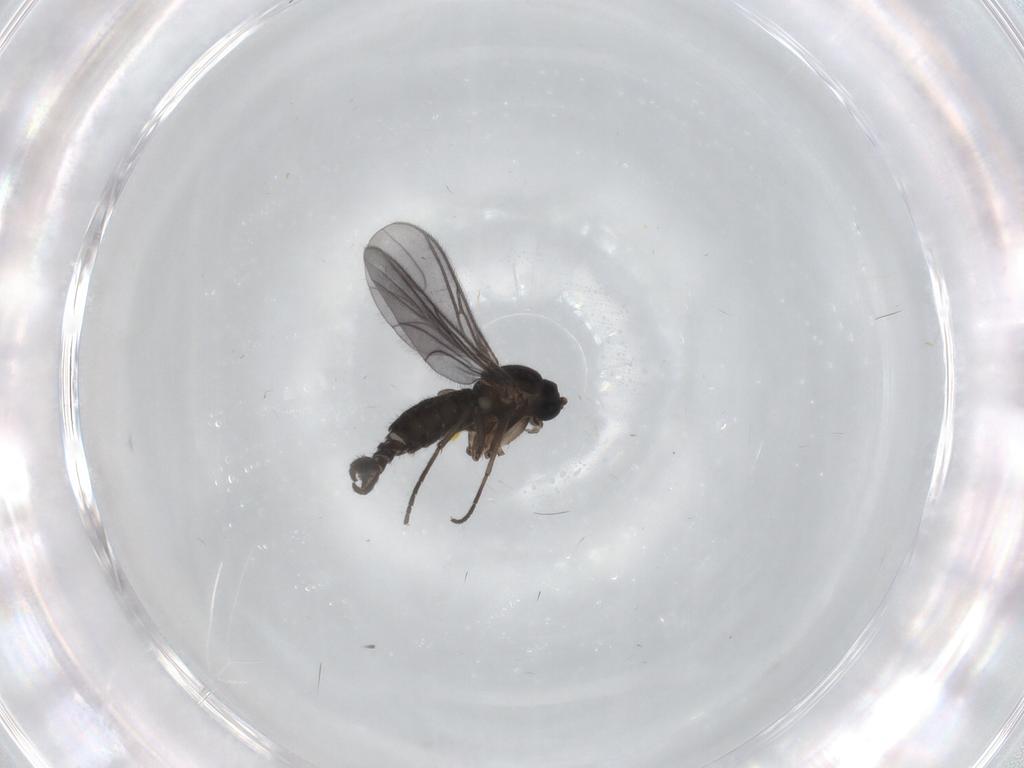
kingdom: Animalia
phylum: Arthropoda
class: Insecta
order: Diptera
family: Sciaridae
